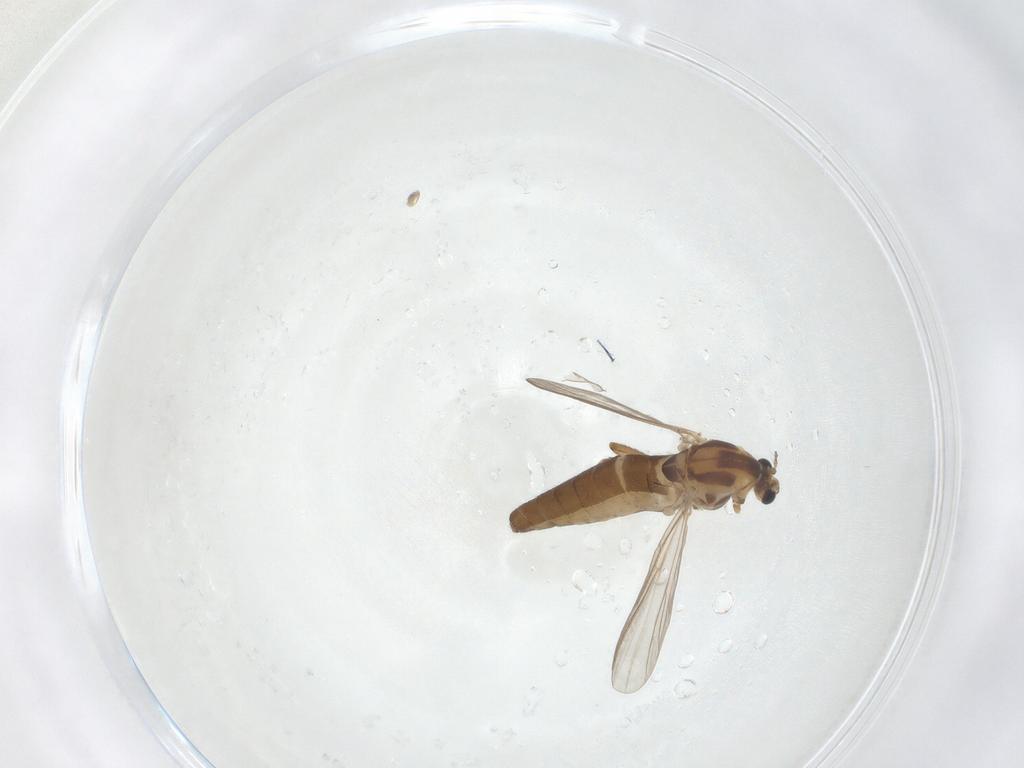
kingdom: Animalia
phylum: Arthropoda
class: Insecta
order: Diptera
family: Chironomidae
